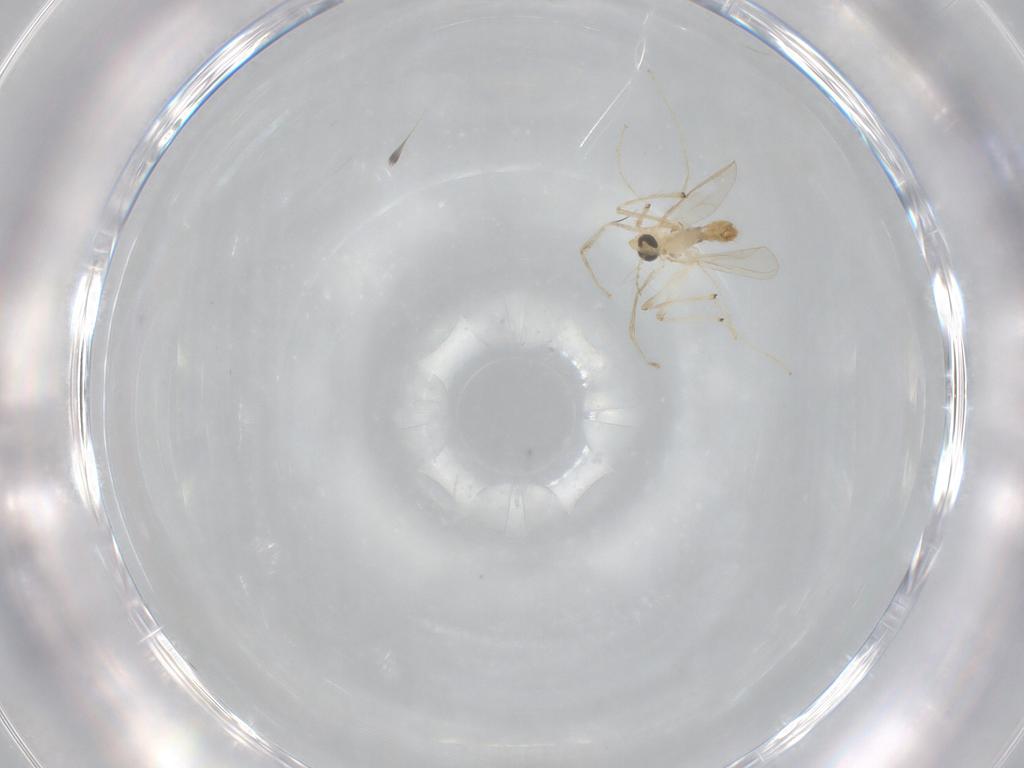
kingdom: Animalia
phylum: Arthropoda
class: Insecta
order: Diptera
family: Chironomidae
